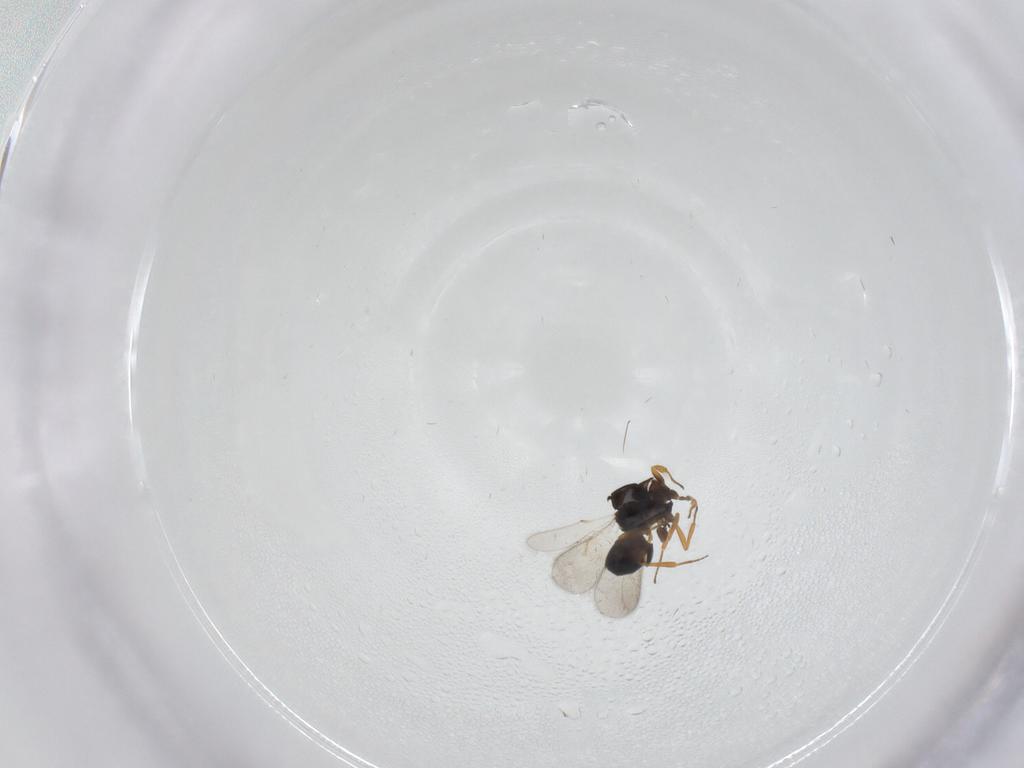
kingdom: Animalia
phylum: Arthropoda
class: Insecta
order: Hymenoptera
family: Scelionidae
